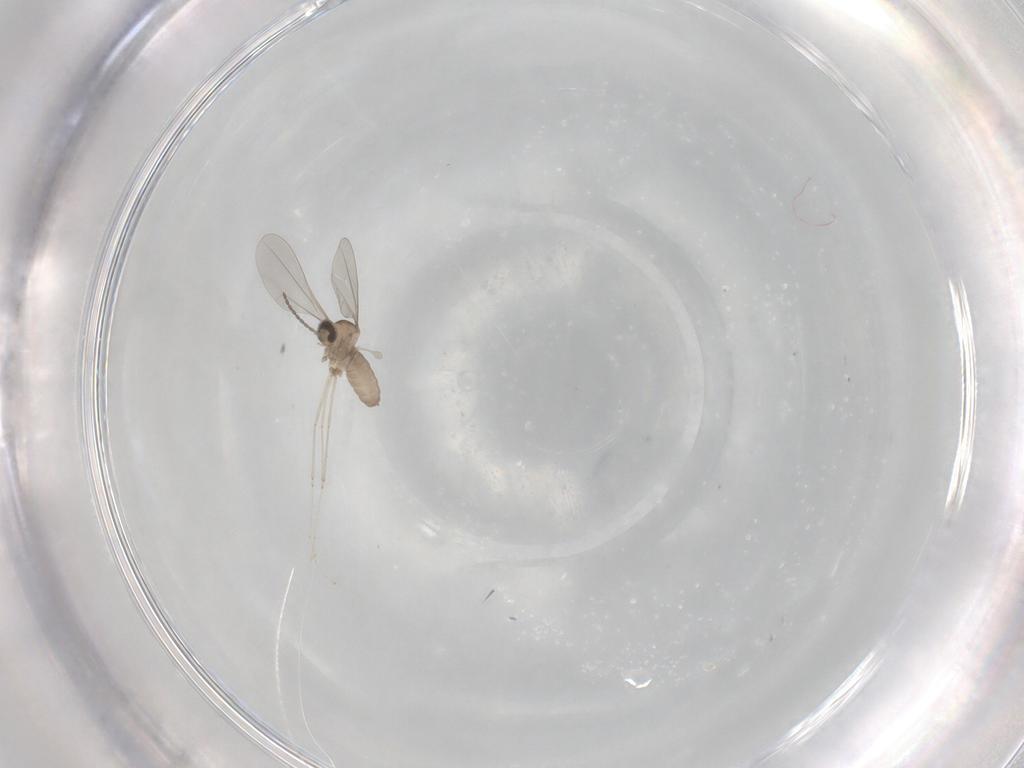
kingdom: Animalia
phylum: Arthropoda
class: Insecta
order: Diptera
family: Cecidomyiidae
